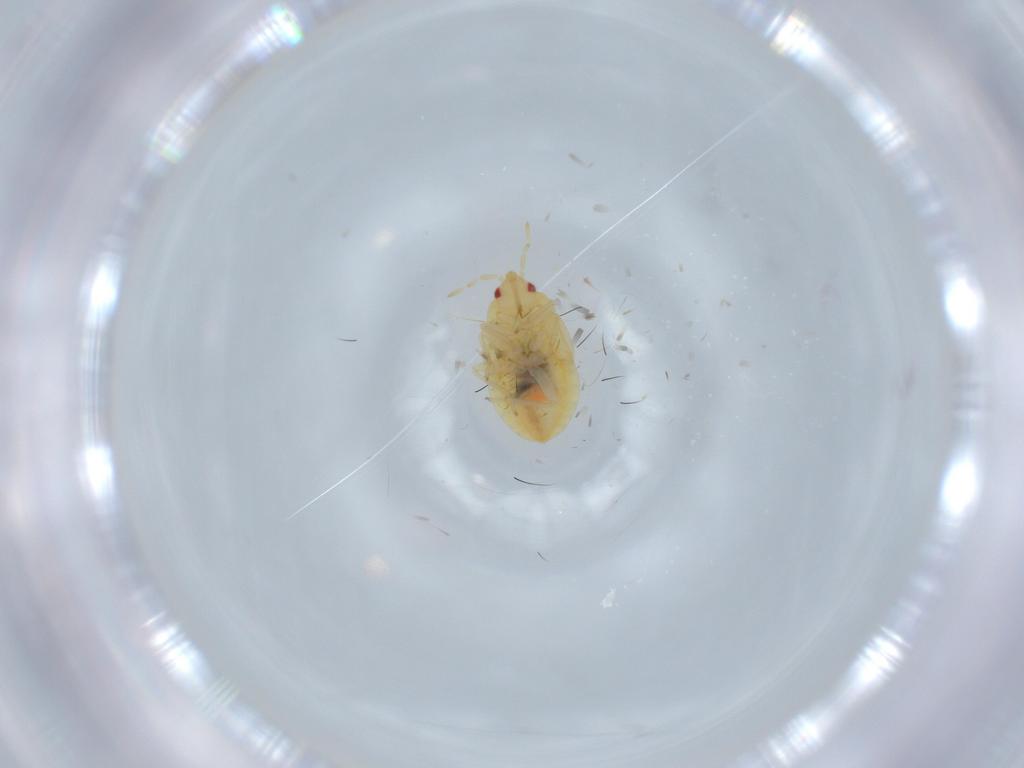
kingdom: Animalia
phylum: Arthropoda
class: Insecta
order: Hemiptera
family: Anthocoridae
